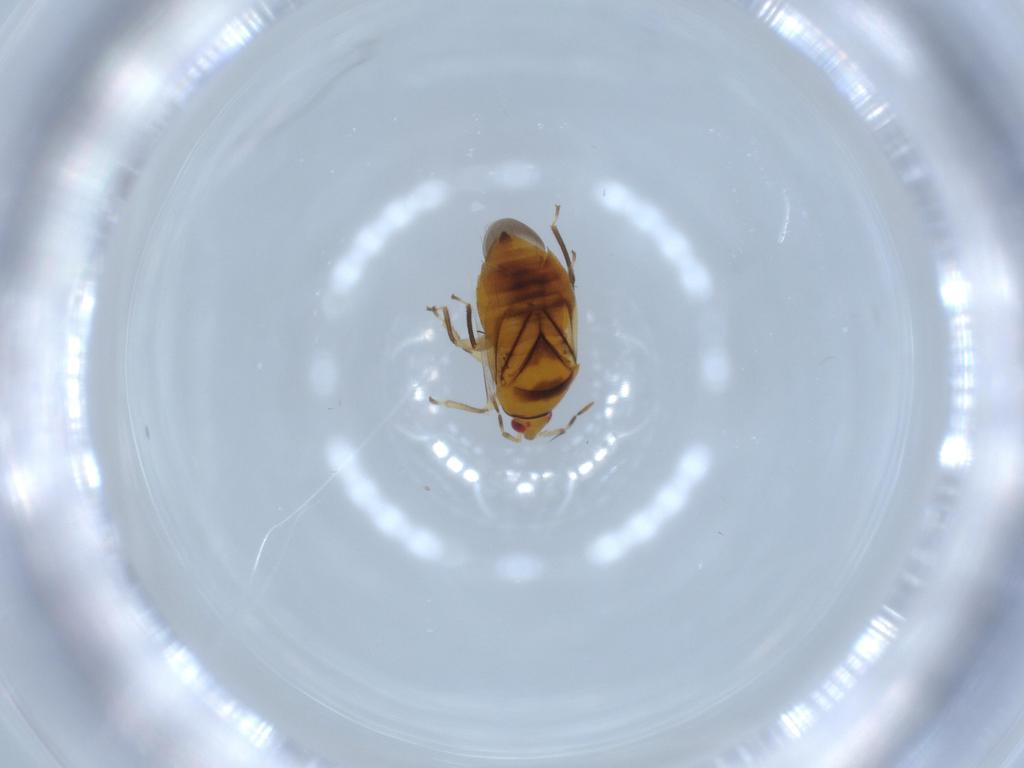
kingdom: Animalia
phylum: Arthropoda
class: Insecta
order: Hemiptera
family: Anthocoridae
